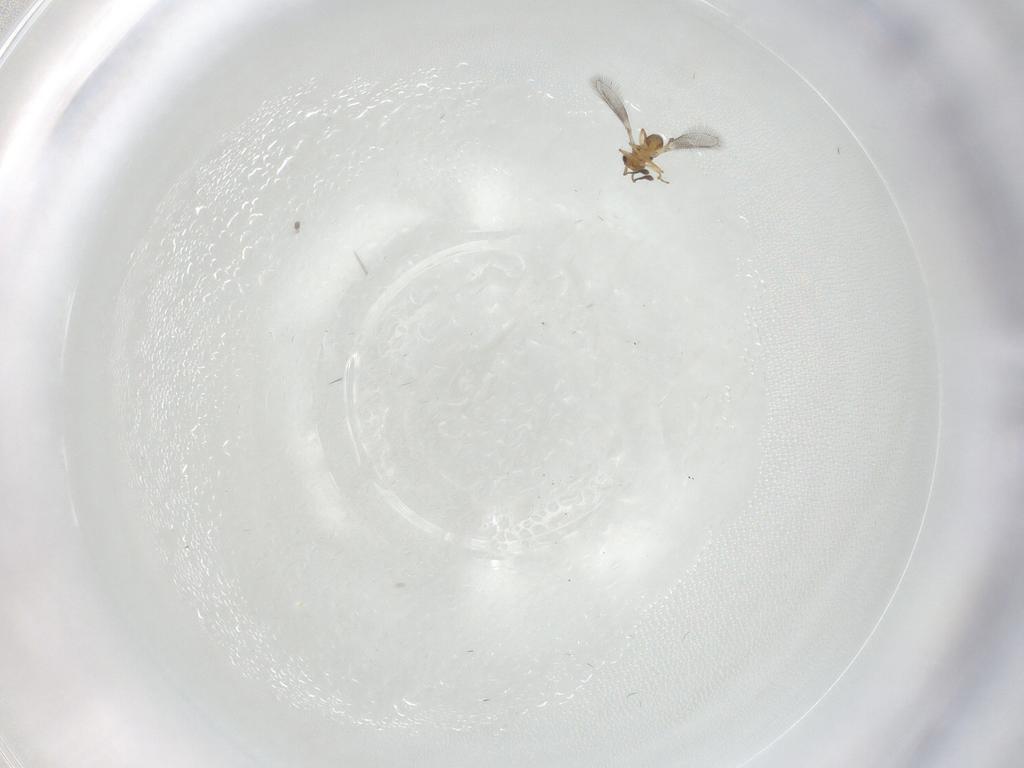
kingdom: Animalia
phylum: Arthropoda
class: Insecta
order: Hymenoptera
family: Mymaridae
